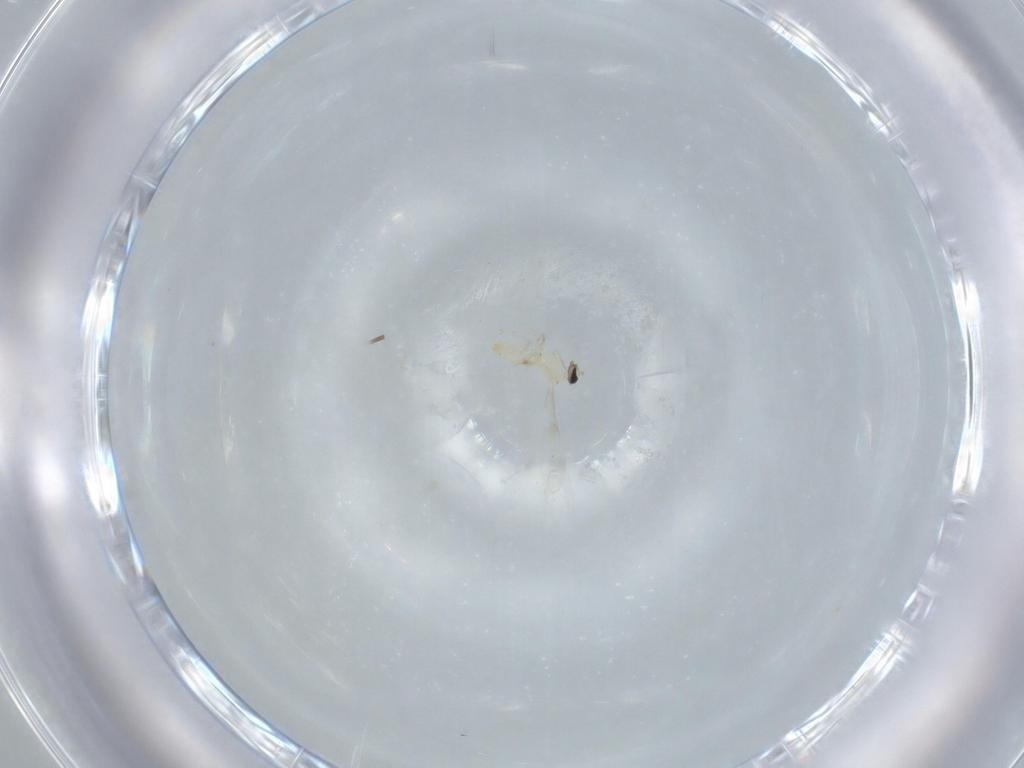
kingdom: Animalia
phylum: Arthropoda
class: Insecta
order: Diptera
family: Cecidomyiidae
